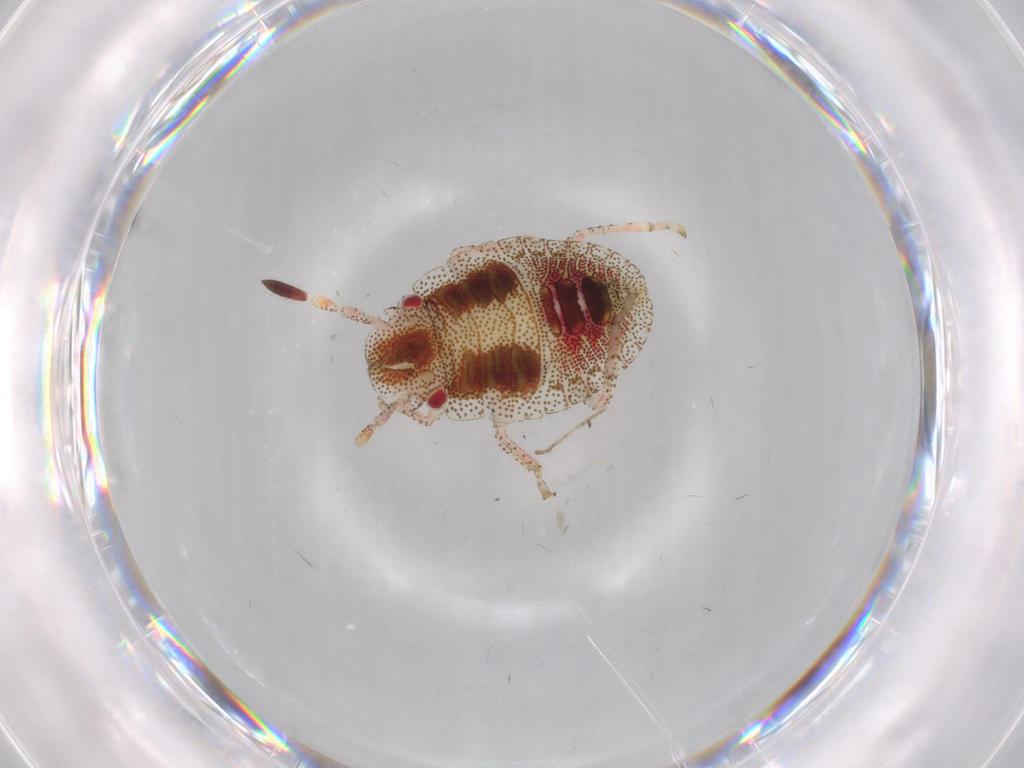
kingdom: Animalia
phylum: Arthropoda
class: Insecta
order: Hemiptera
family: Pentatomidae
